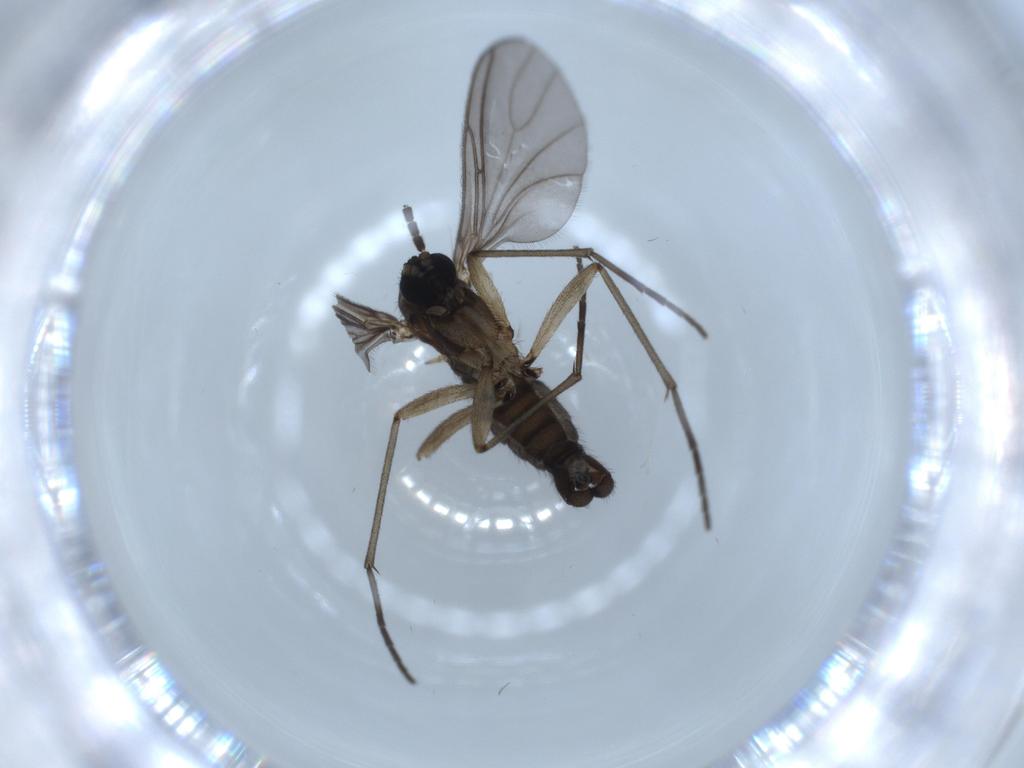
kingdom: Animalia
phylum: Arthropoda
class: Insecta
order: Diptera
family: Sciaridae
